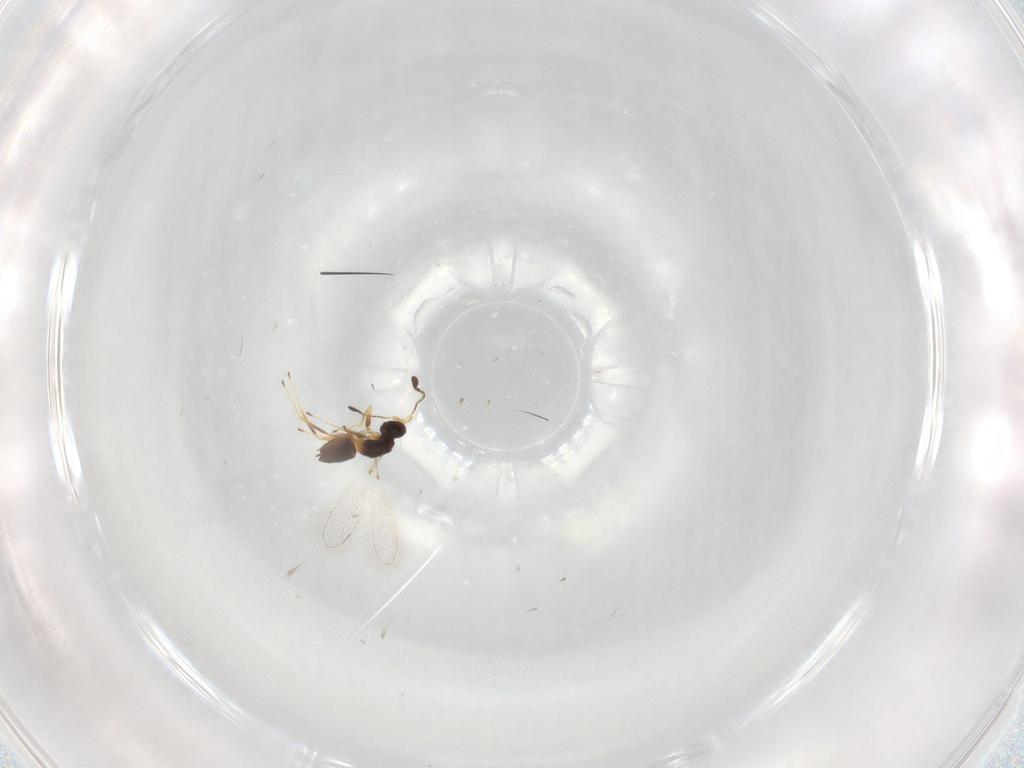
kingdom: Animalia
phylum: Arthropoda
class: Insecta
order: Hymenoptera
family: Mymaridae
